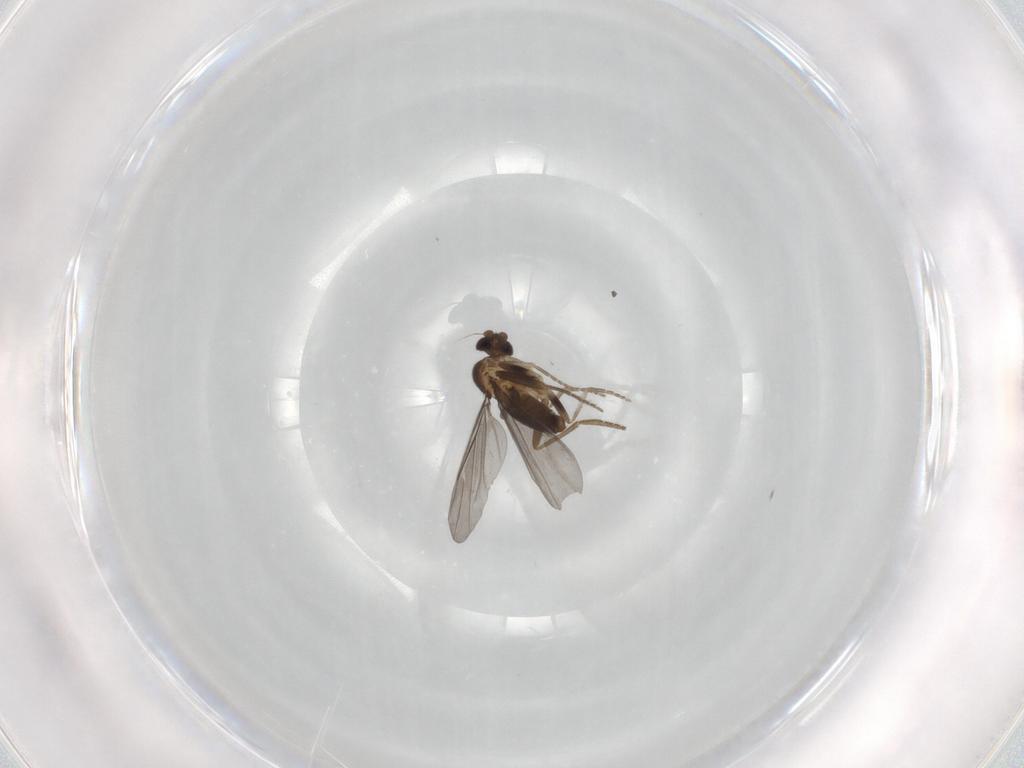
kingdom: Animalia
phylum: Arthropoda
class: Insecta
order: Diptera
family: Phoridae
